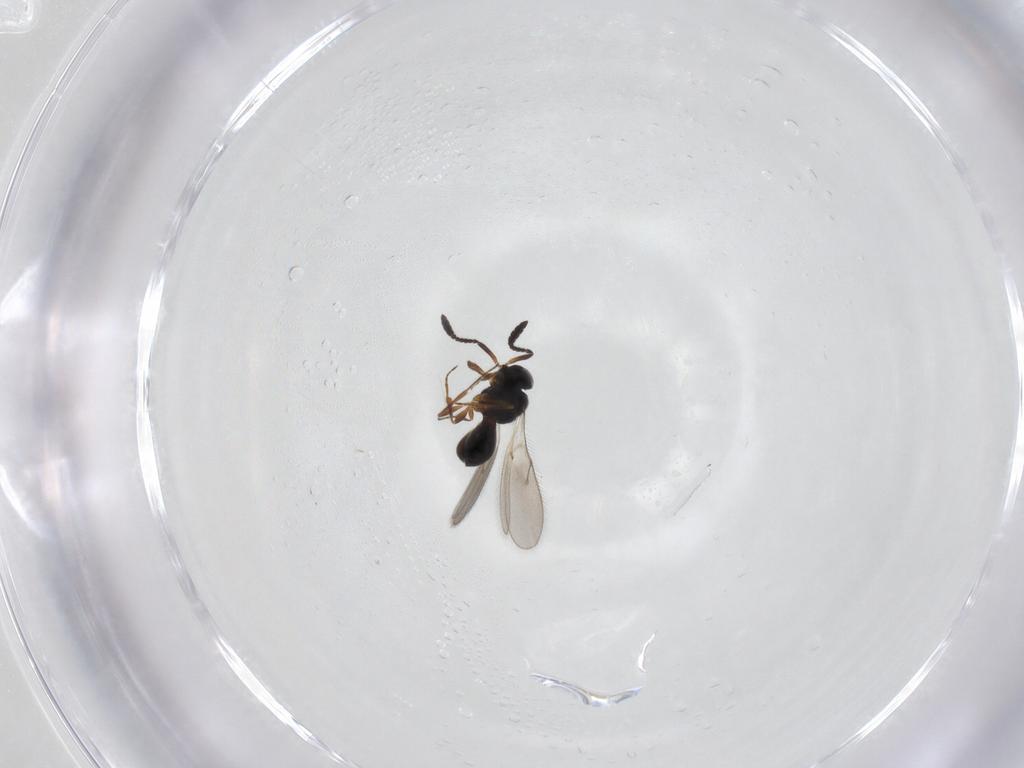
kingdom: Animalia
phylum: Arthropoda
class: Insecta
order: Hymenoptera
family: Scelionidae
